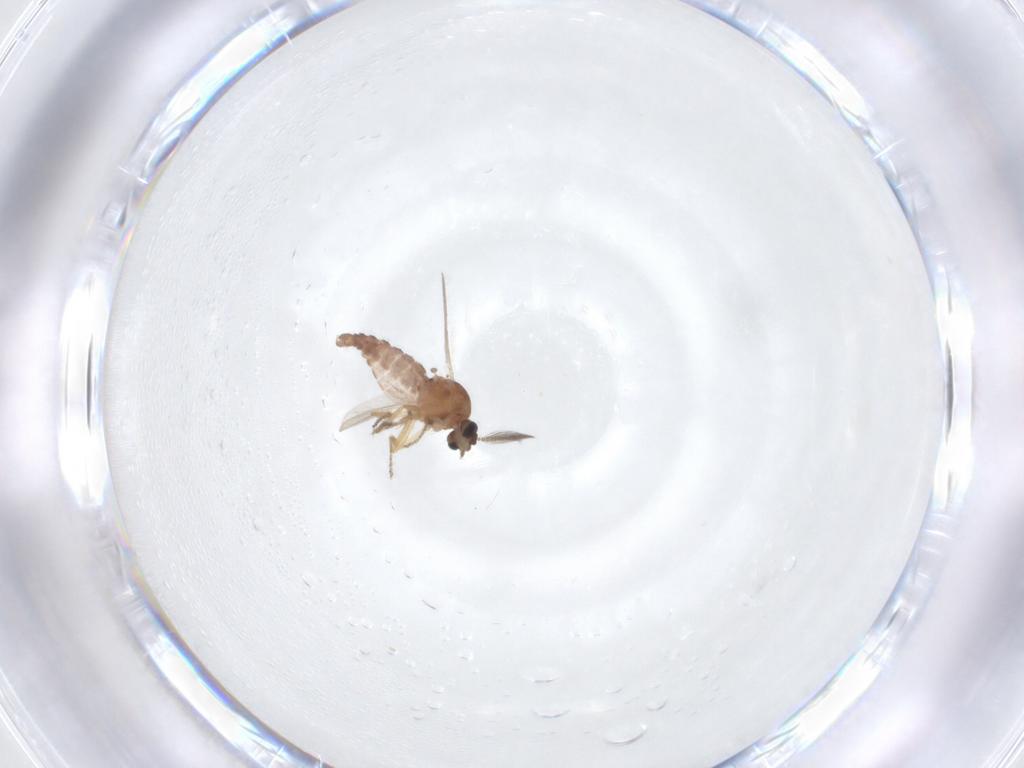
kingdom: Animalia
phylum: Arthropoda
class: Insecta
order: Diptera
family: Ceratopogonidae
